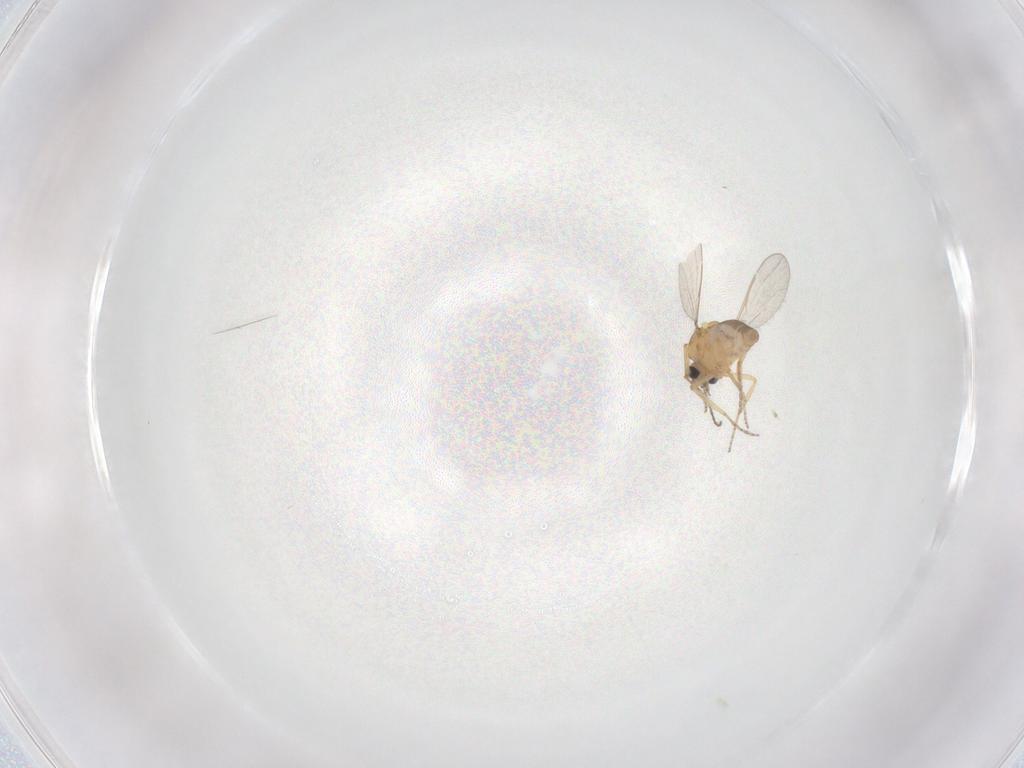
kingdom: Animalia
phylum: Arthropoda
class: Insecta
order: Diptera
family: Ceratopogonidae
